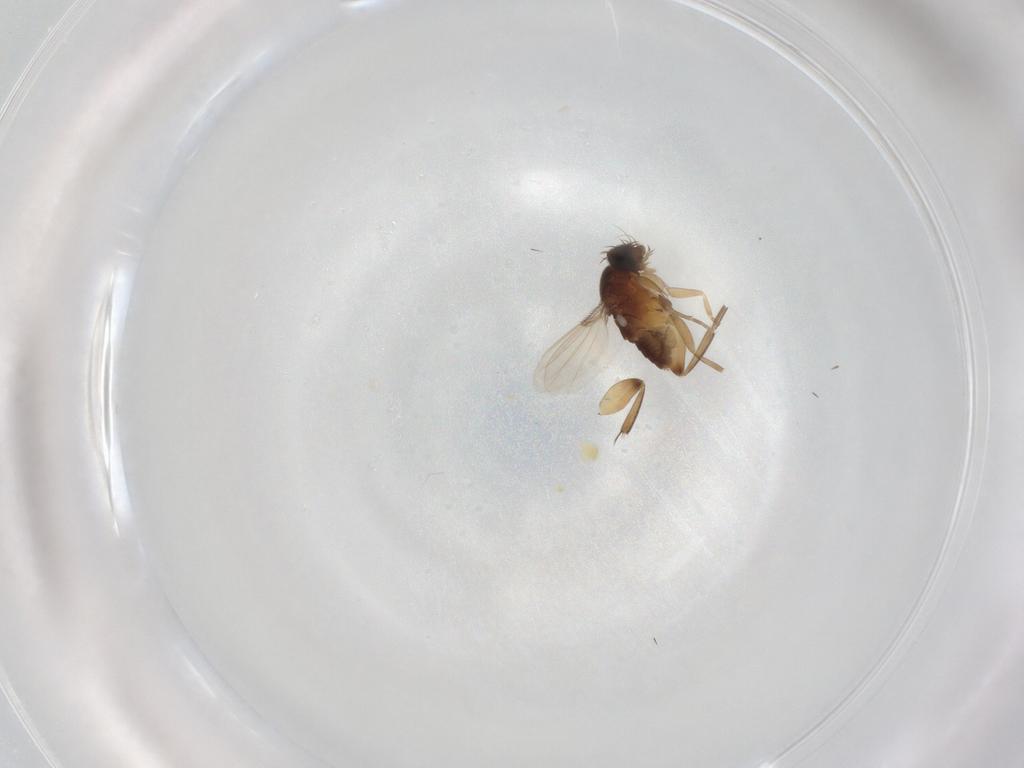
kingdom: Animalia
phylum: Arthropoda
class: Insecta
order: Diptera
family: Phoridae
